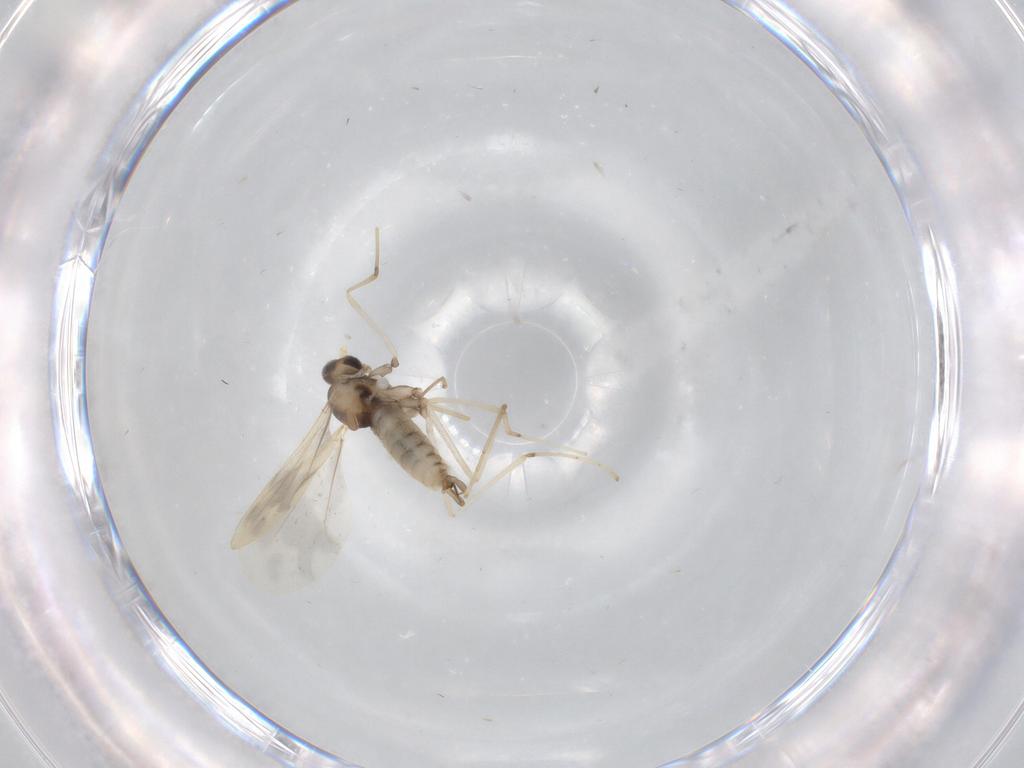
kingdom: Animalia
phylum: Arthropoda
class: Insecta
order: Diptera
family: Cecidomyiidae
